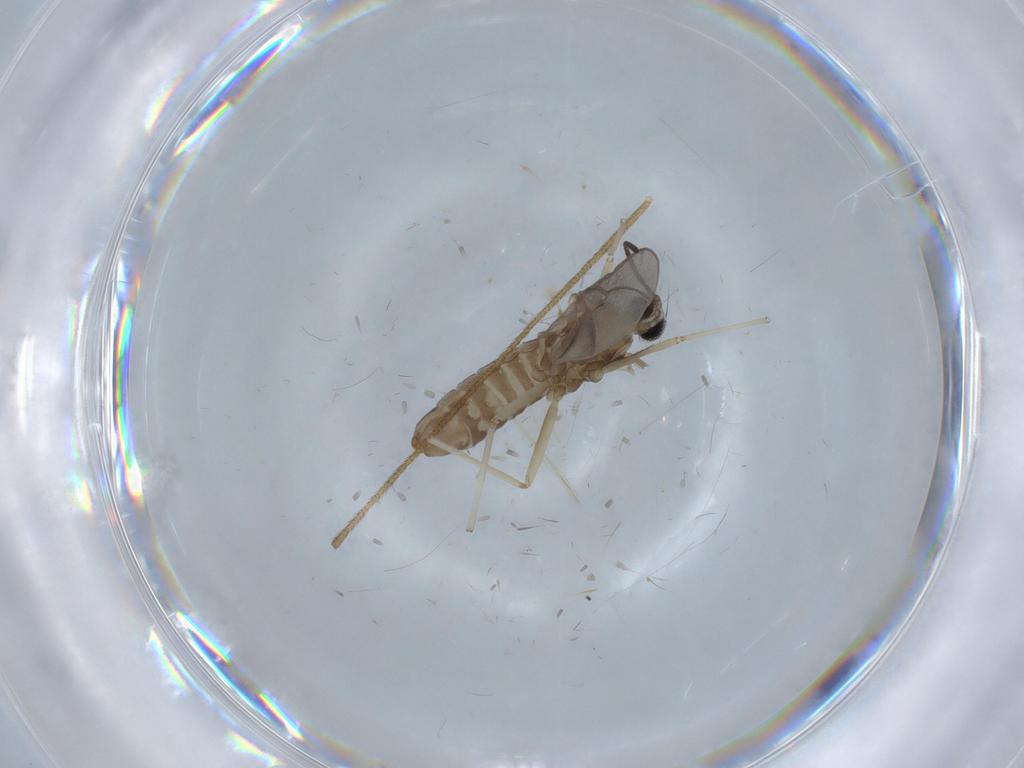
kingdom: Animalia
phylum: Arthropoda
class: Insecta
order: Diptera
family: Limoniidae
